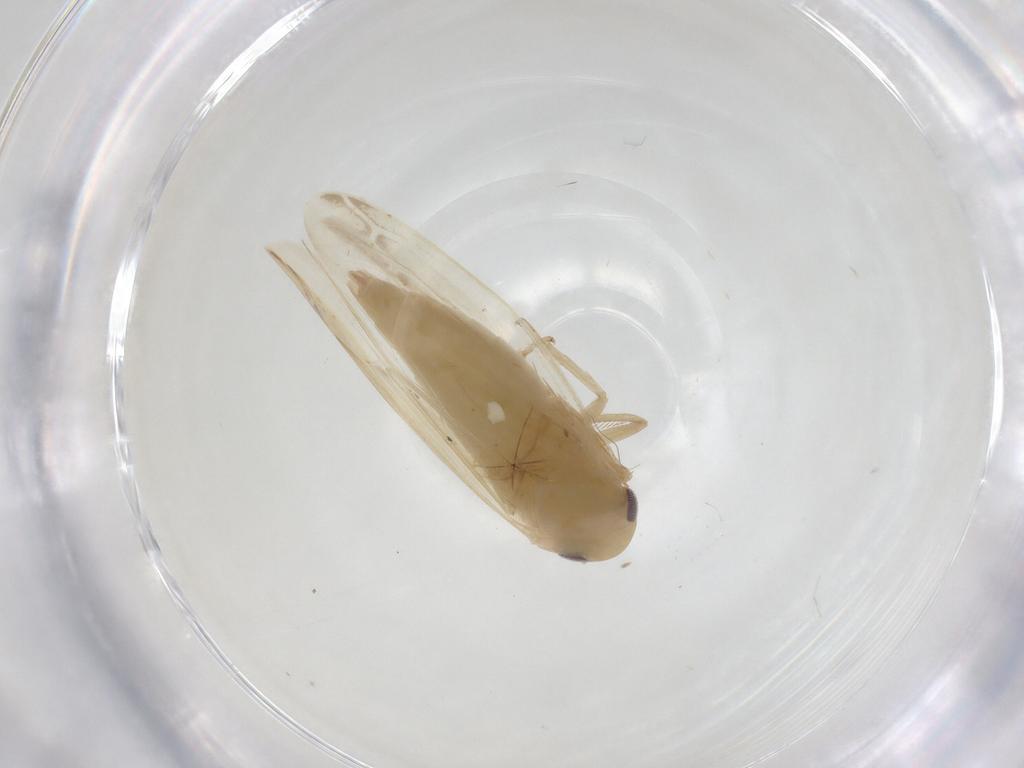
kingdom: Animalia
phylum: Arthropoda
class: Insecta
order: Hemiptera
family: Cicadellidae
